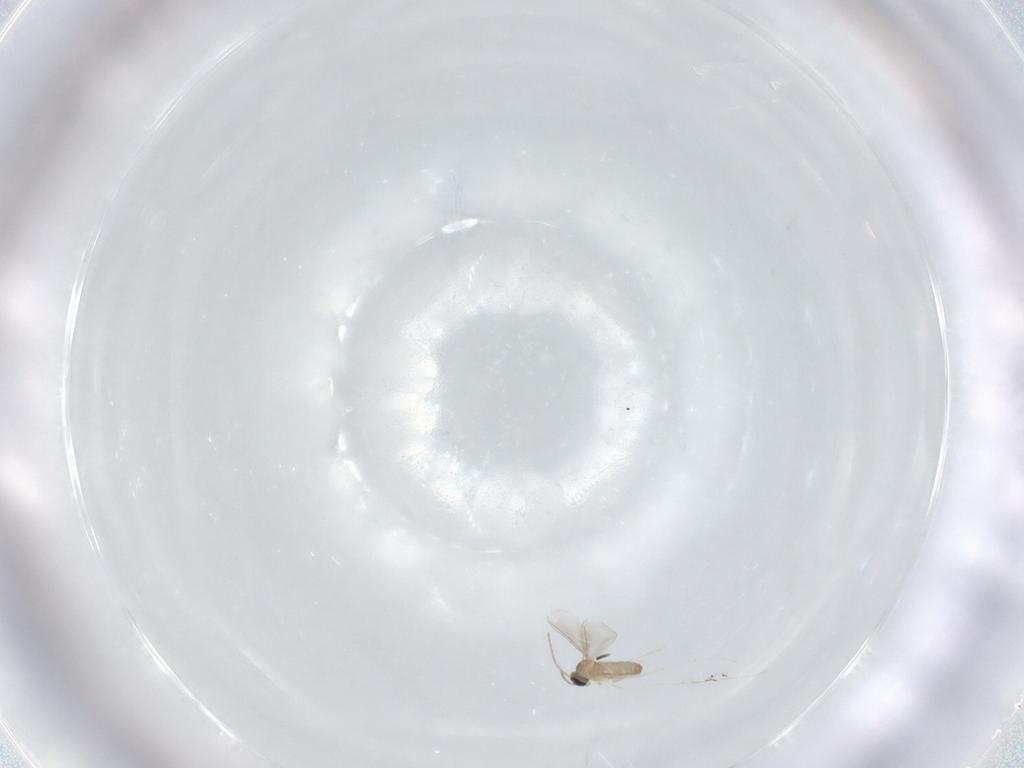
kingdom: Animalia
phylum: Arthropoda
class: Insecta
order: Diptera
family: Cecidomyiidae
